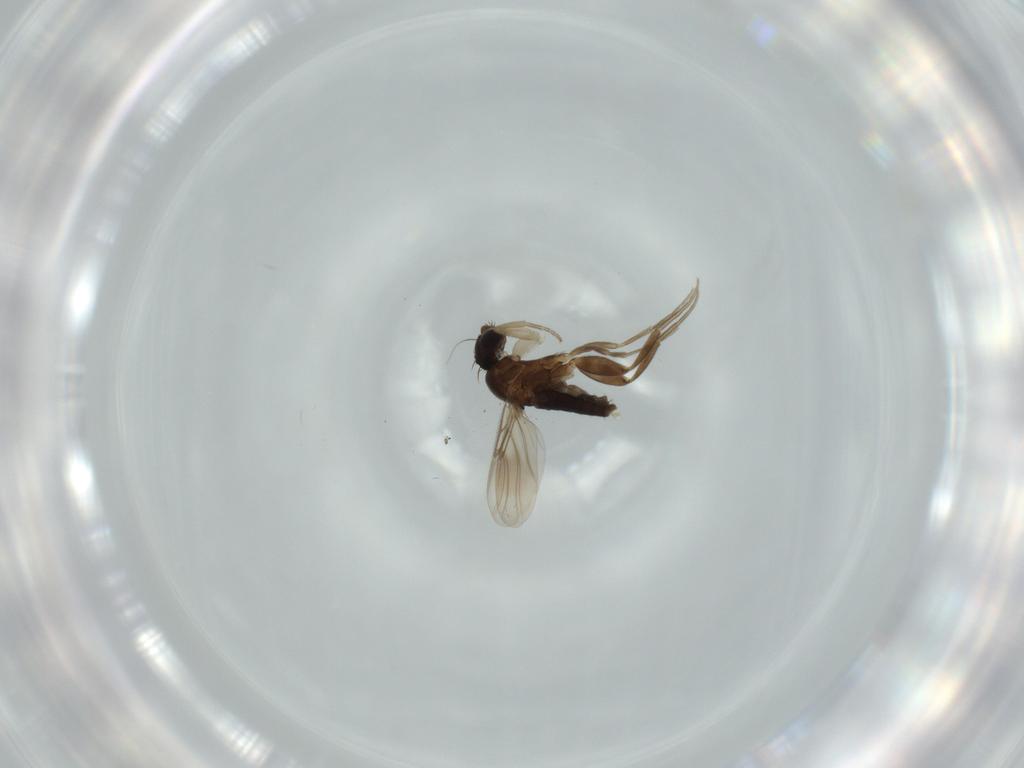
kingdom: Animalia
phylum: Arthropoda
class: Insecta
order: Diptera
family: Phoridae
